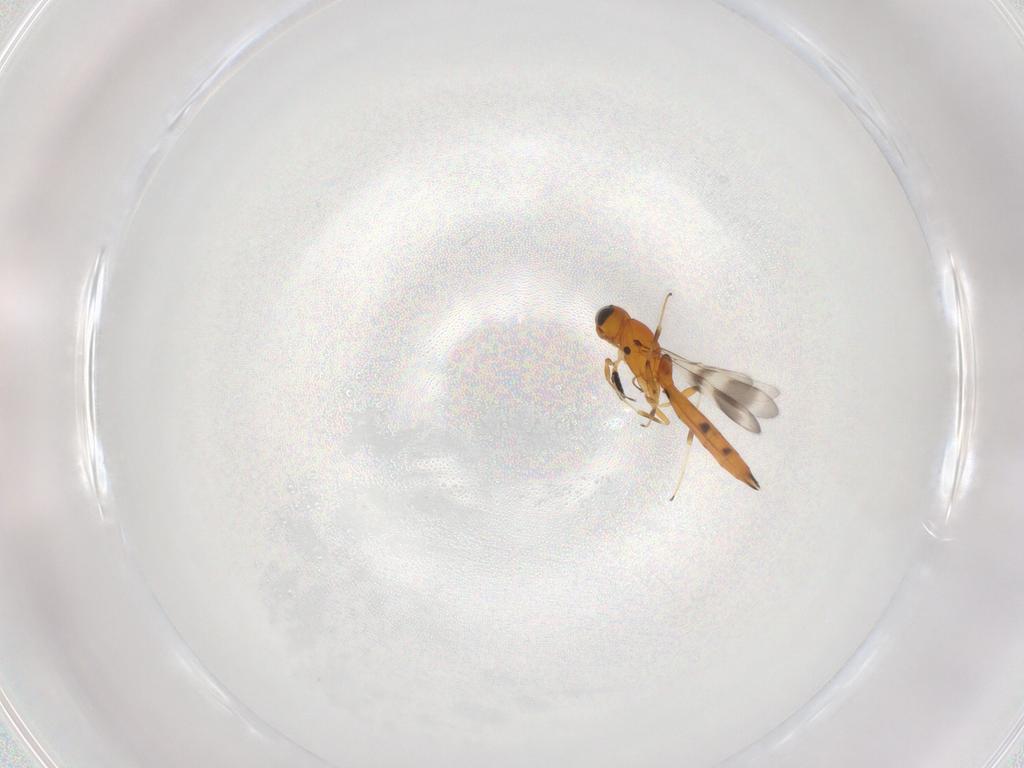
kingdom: Animalia
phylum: Arthropoda
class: Insecta
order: Hymenoptera
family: Scelionidae
